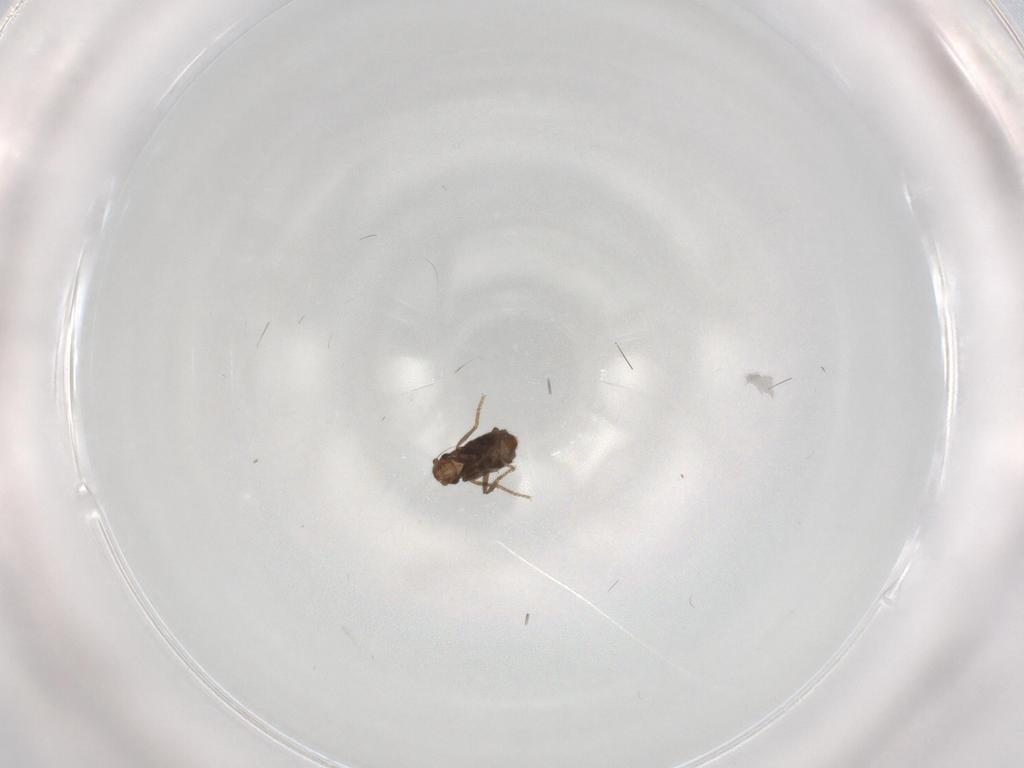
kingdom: Animalia
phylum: Arthropoda
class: Insecta
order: Diptera
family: Phoridae
